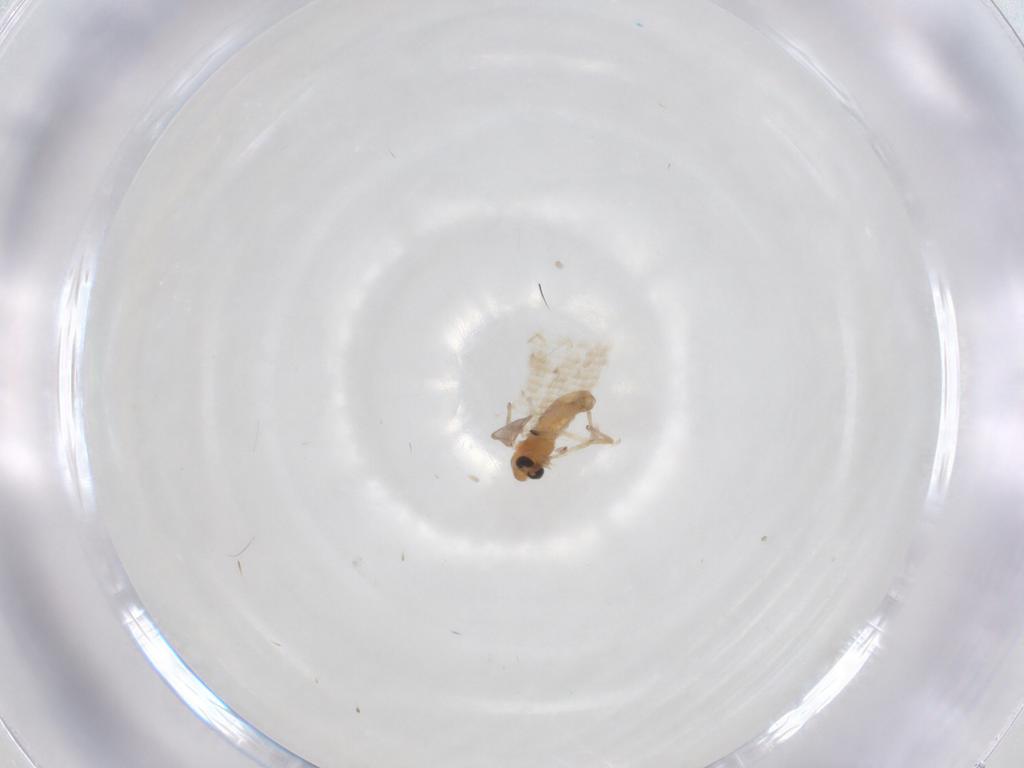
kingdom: Animalia
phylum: Arthropoda
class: Insecta
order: Diptera
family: Chironomidae
